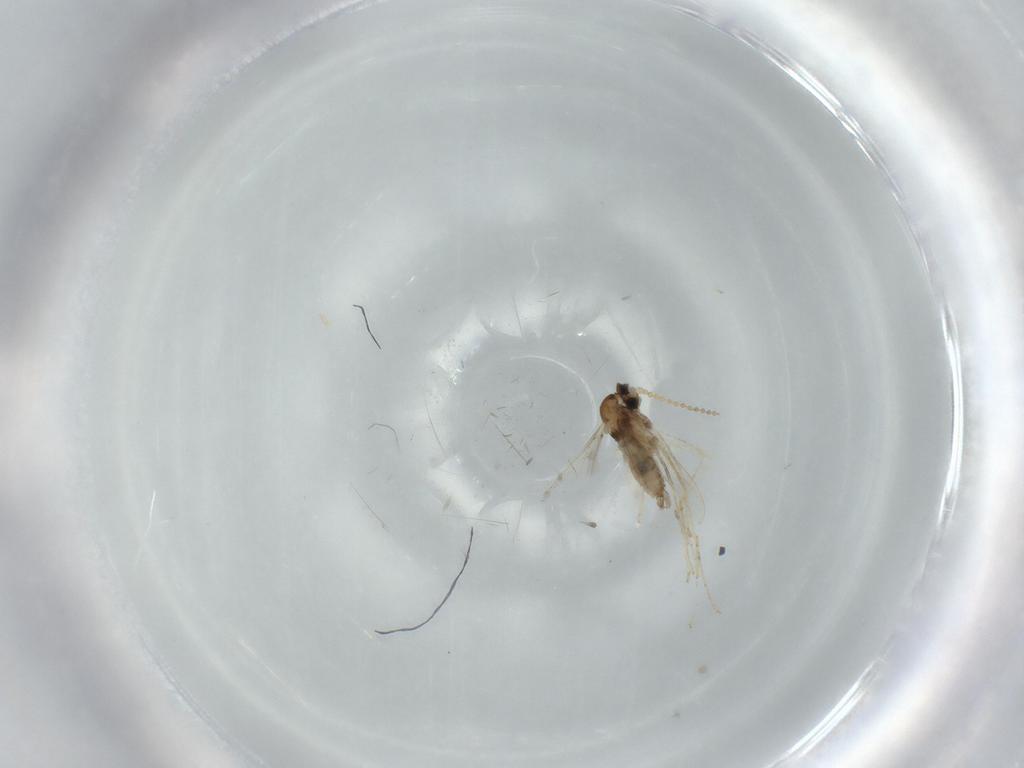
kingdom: Animalia
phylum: Arthropoda
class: Insecta
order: Diptera
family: Cecidomyiidae
